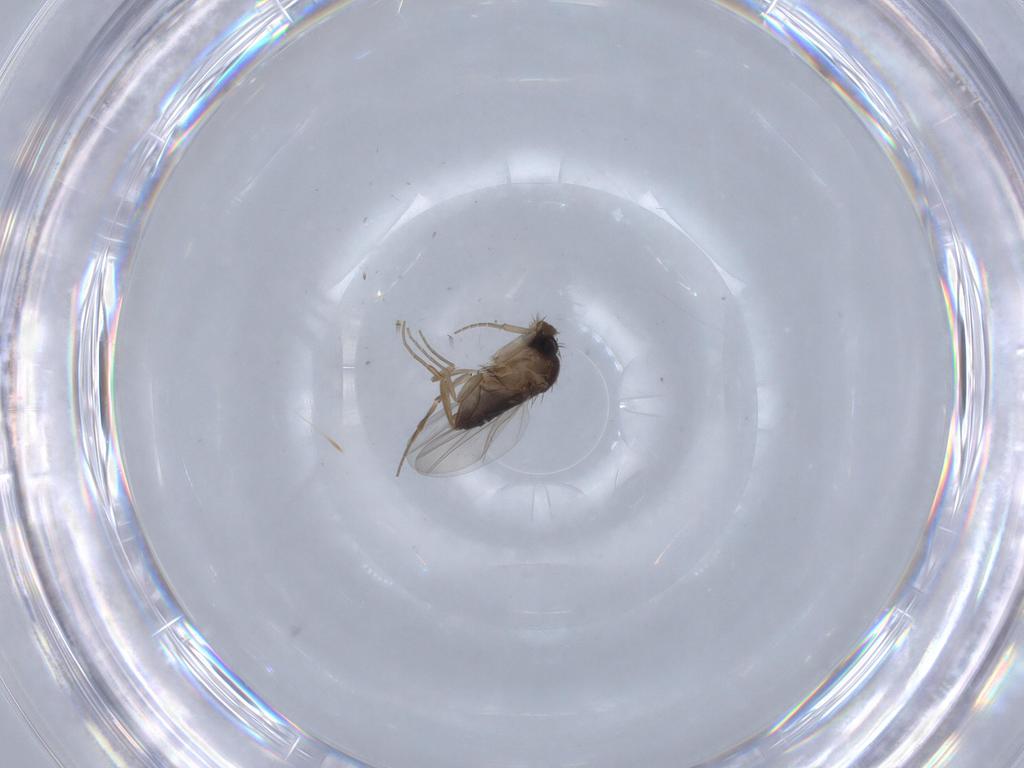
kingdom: Animalia
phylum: Arthropoda
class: Insecta
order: Diptera
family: Phoridae
